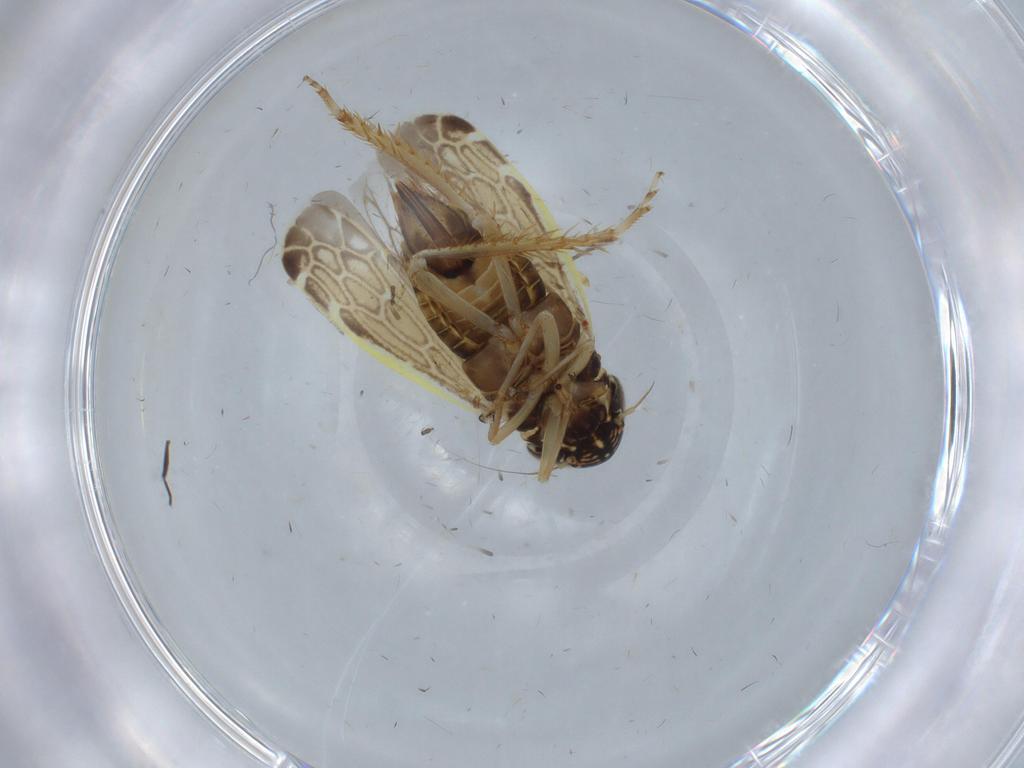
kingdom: Animalia
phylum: Arthropoda
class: Insecta
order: Hemiptera
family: Cicadellidae
